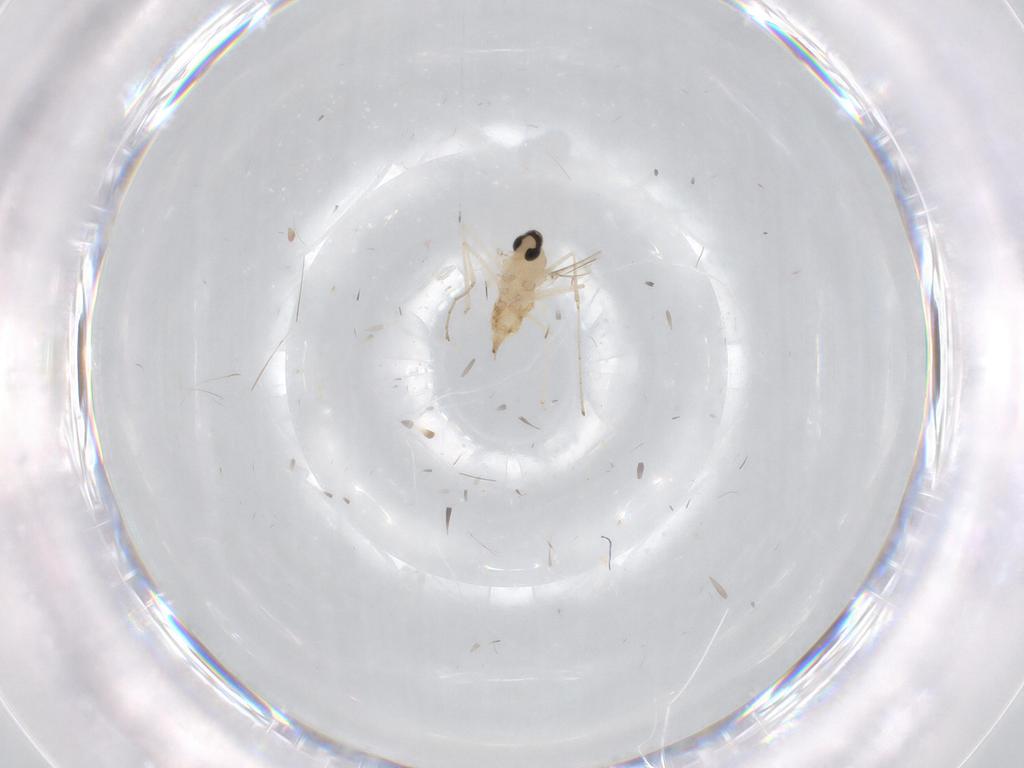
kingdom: Animalia
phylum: Arthropoda
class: Insecta
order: Diptera
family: Cecidomyiidae
